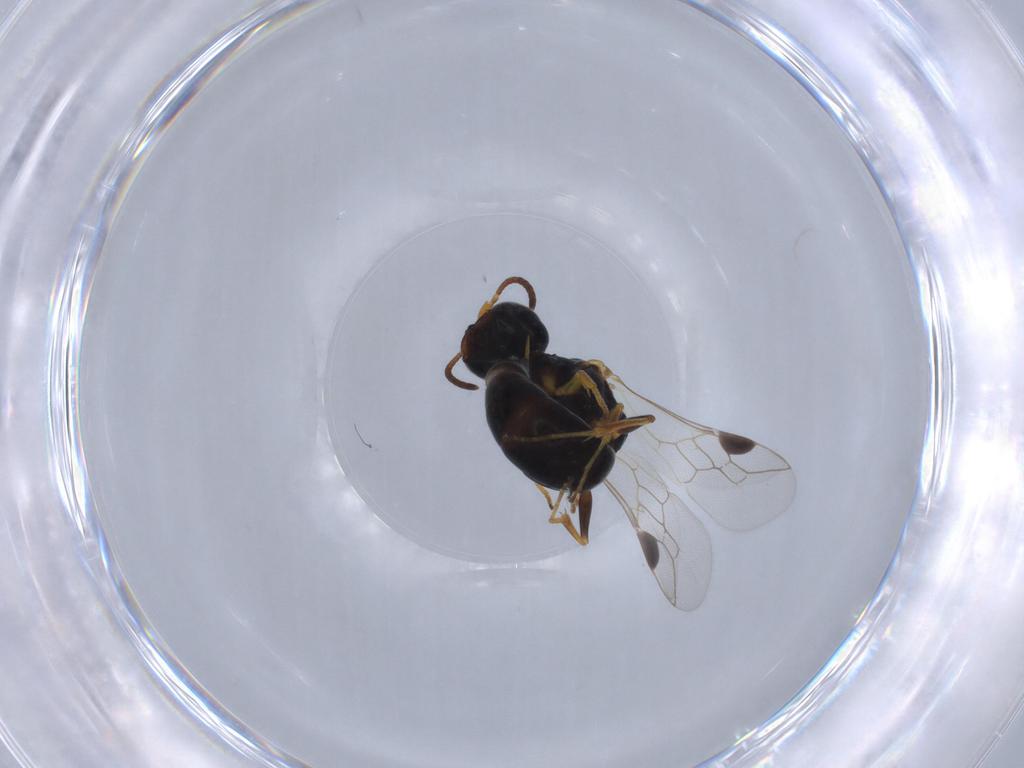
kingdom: Animalia
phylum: Arthropoda
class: Insecta
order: Hymenoptera
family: Crabronidae
